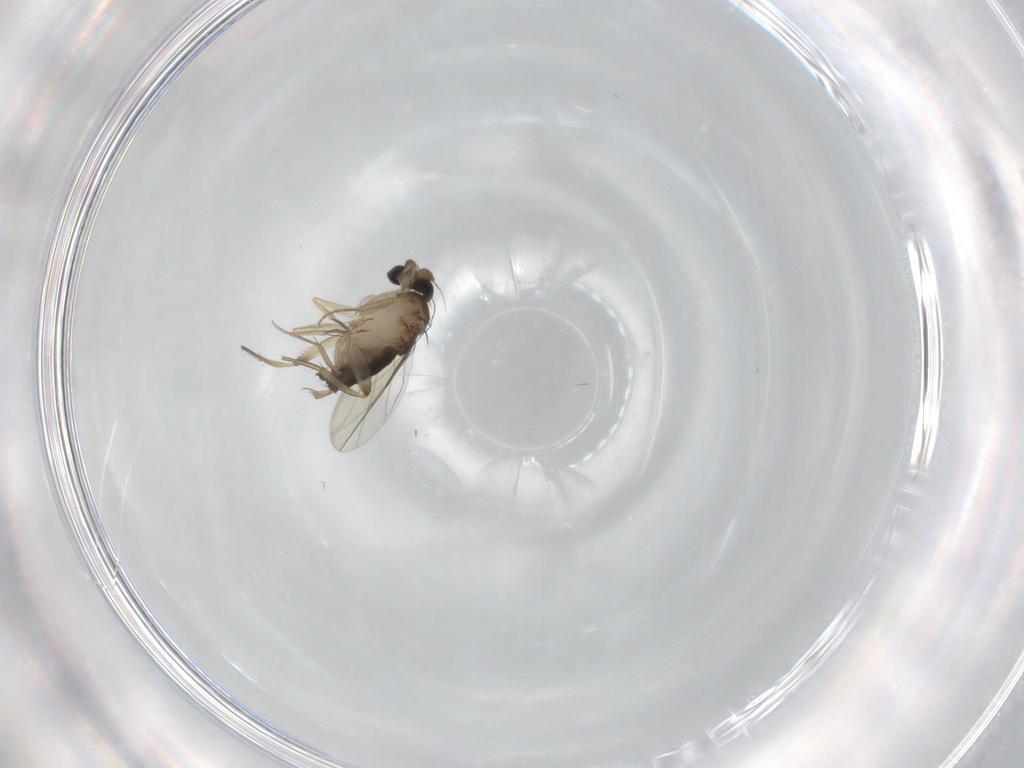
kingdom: Animalia
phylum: Arthropoda
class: Insecta
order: Diptera
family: Phoridae
